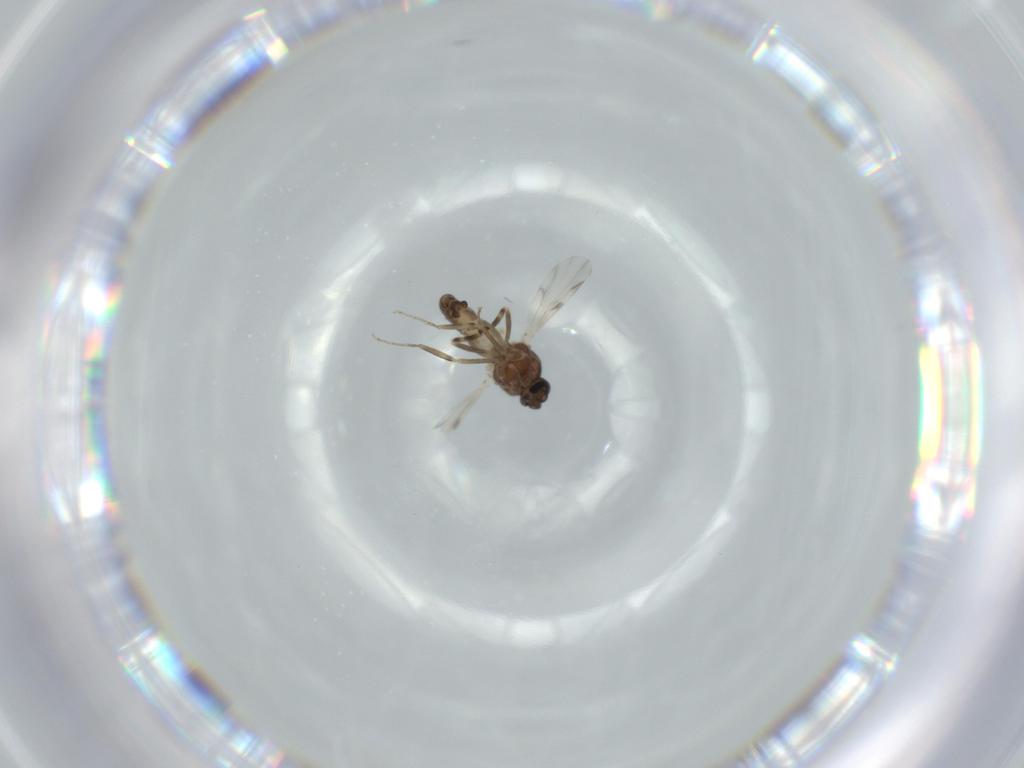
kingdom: Animalia
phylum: Arthropoda
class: Insecta
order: Diptera
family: Ceratopogonidae
